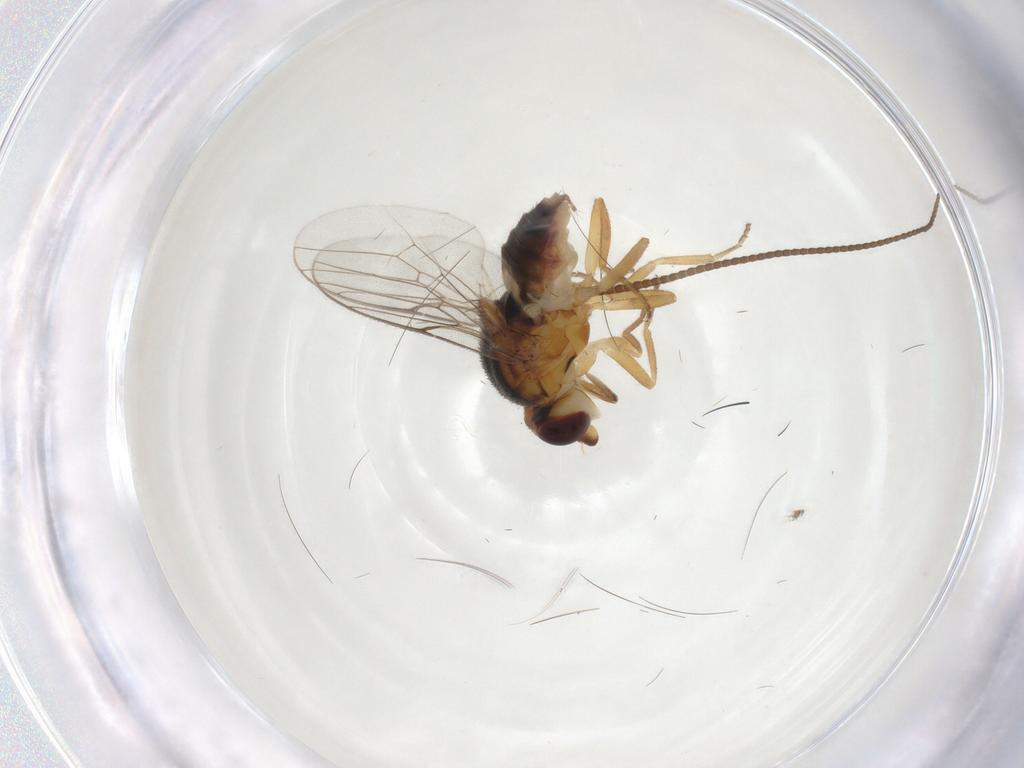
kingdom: Animalia
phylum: Arthropoda
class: Insecta
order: Diptera
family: Chloropidae
